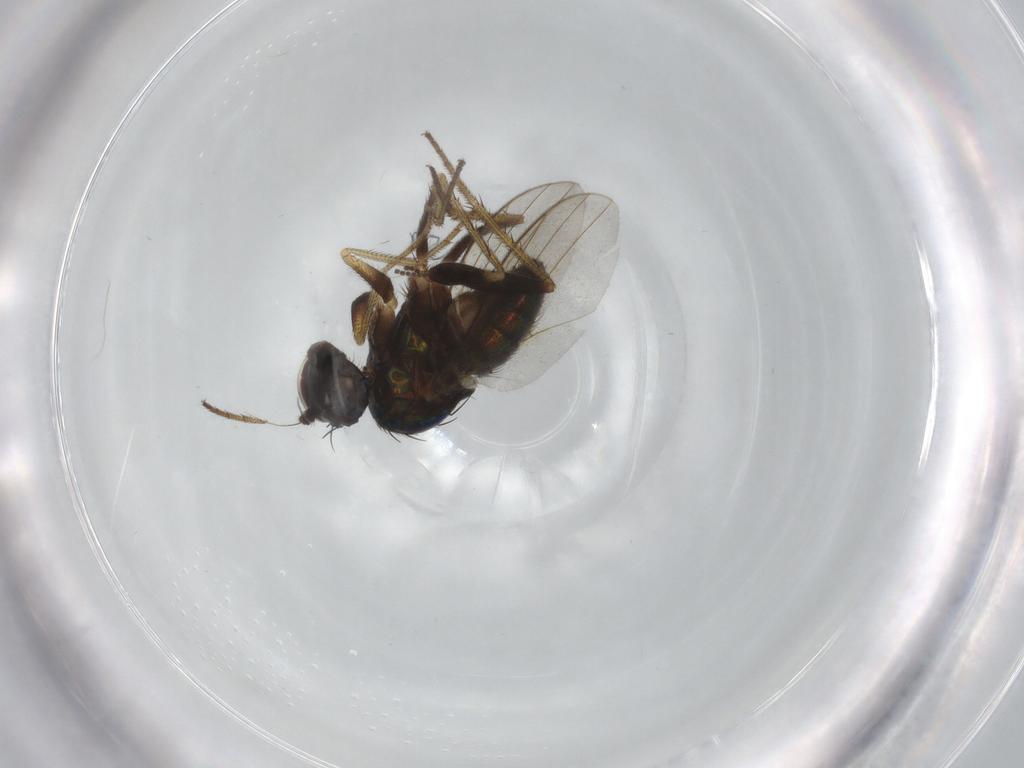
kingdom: Animalia
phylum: Arthropoda
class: Insecta
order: Diptera
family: Dolichopodidae
